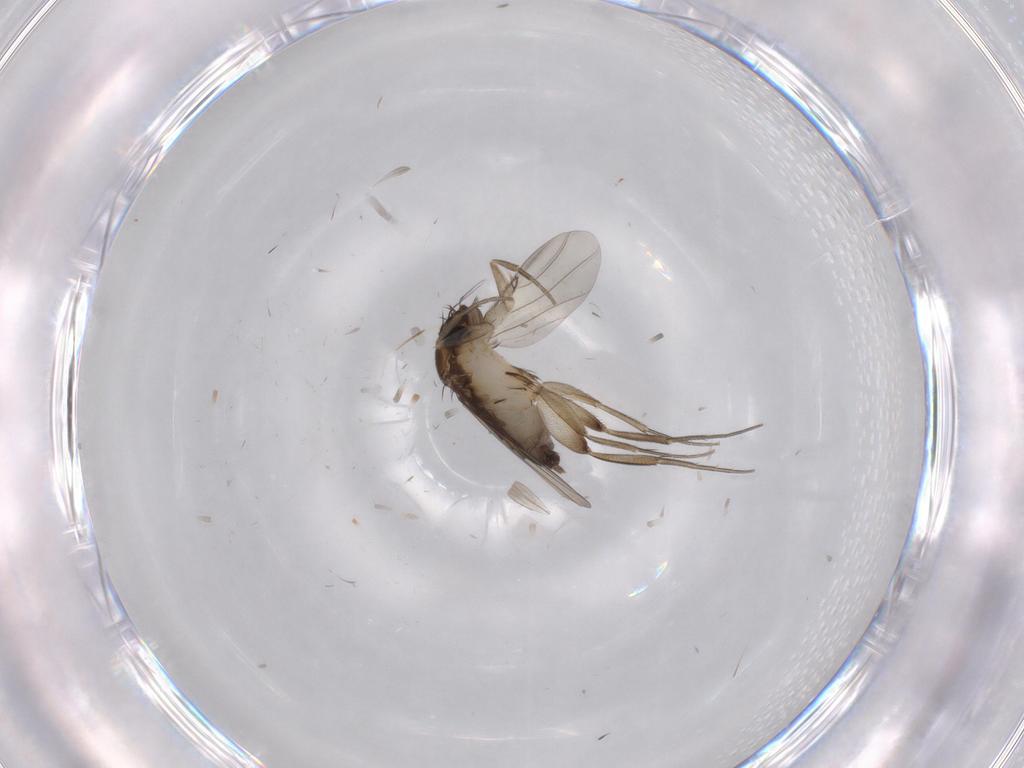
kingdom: Animalia
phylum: Arthropoda
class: Insecta
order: Diptera
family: Phoridae
